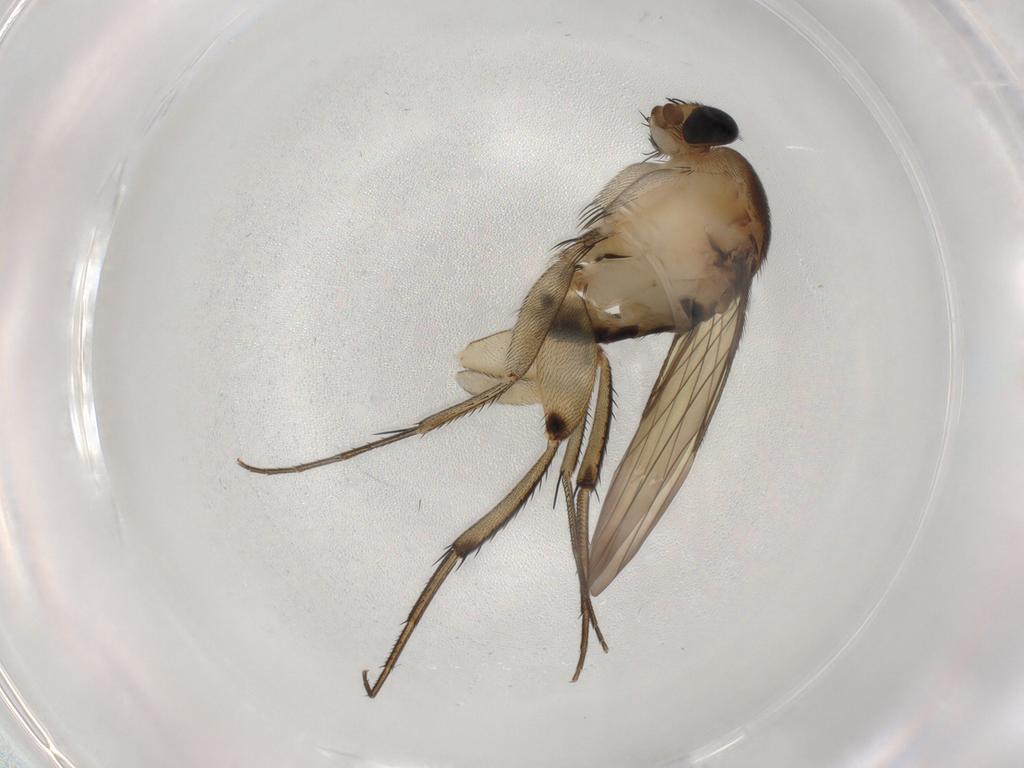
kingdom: Animalia
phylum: Arthropoda
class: Insecta
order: Diptera
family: Phoridae
